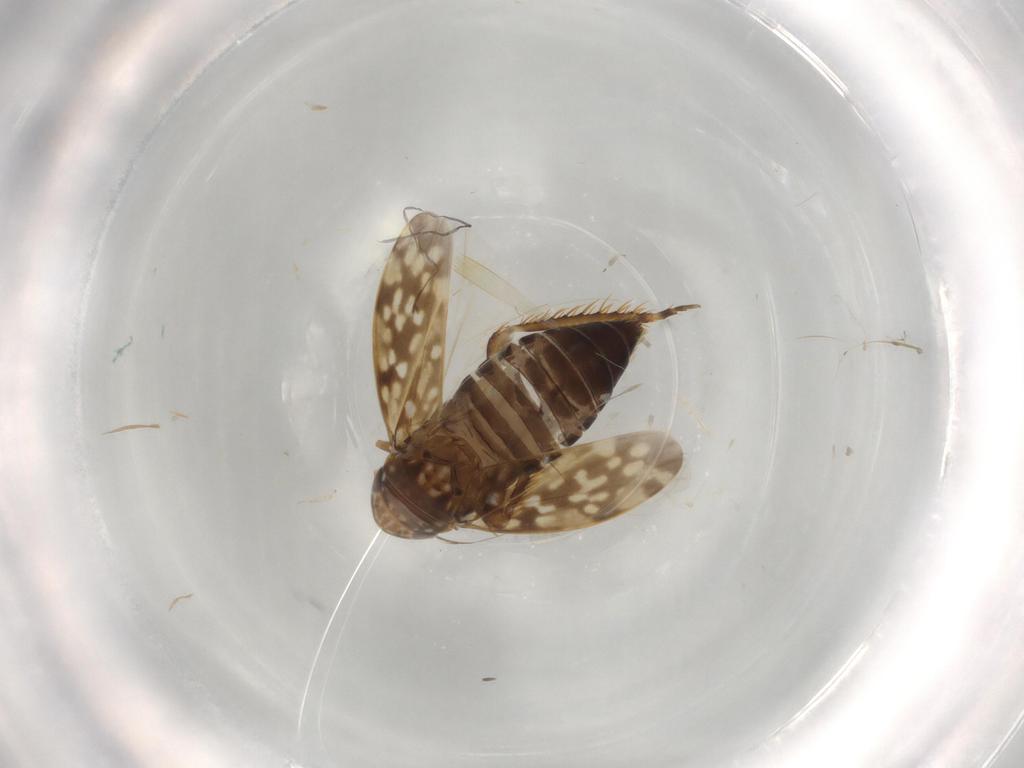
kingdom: Animalia
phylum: Arthropoda
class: Insecta
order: Hemiptera
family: Cicadellidae
